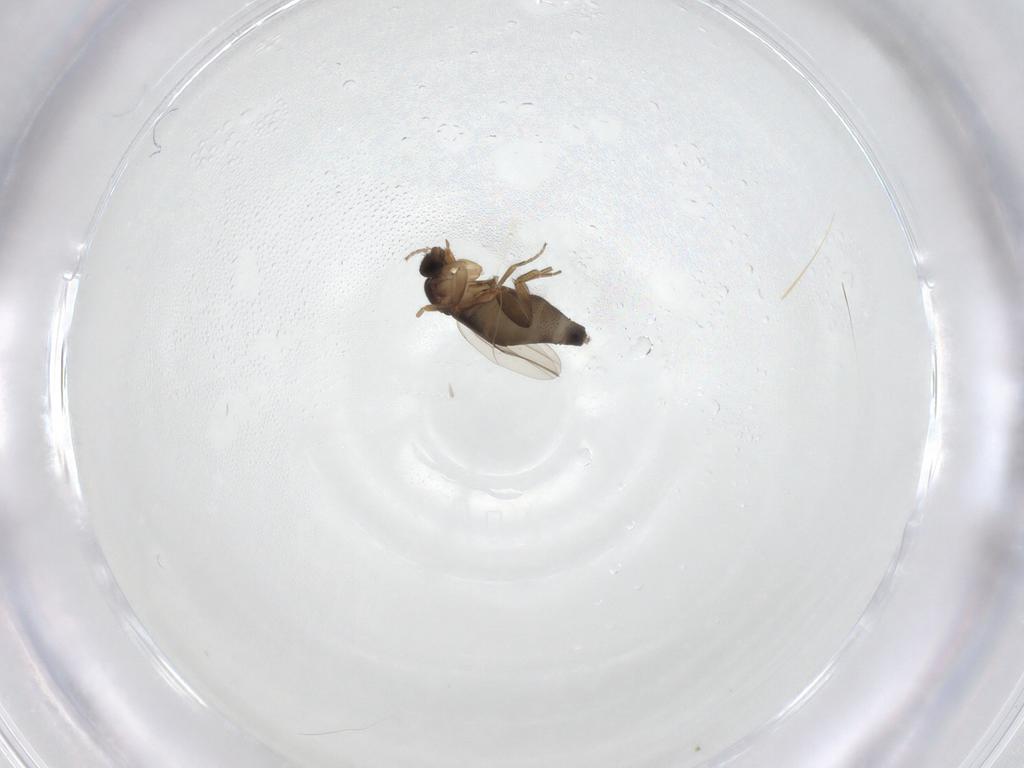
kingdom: Animalia
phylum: Arthropoda
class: Insecta
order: Diptera
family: Phoridae
